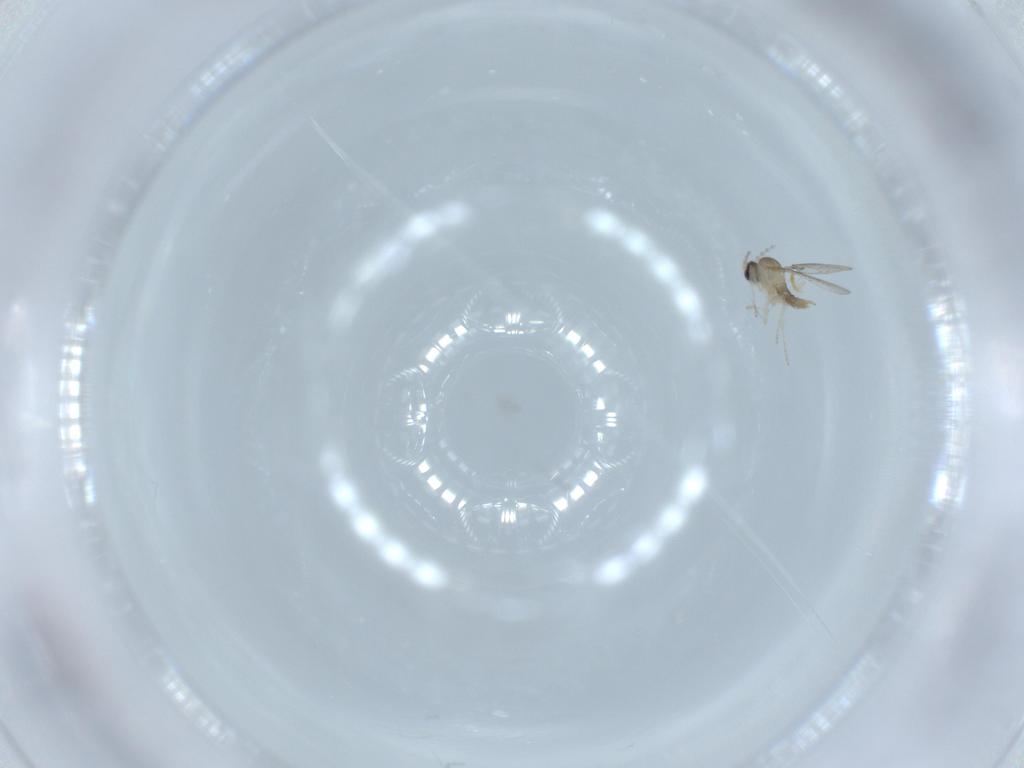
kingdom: Animalia
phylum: Arthropoda
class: Insecta
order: Diptera
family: Cecidomyiidae
